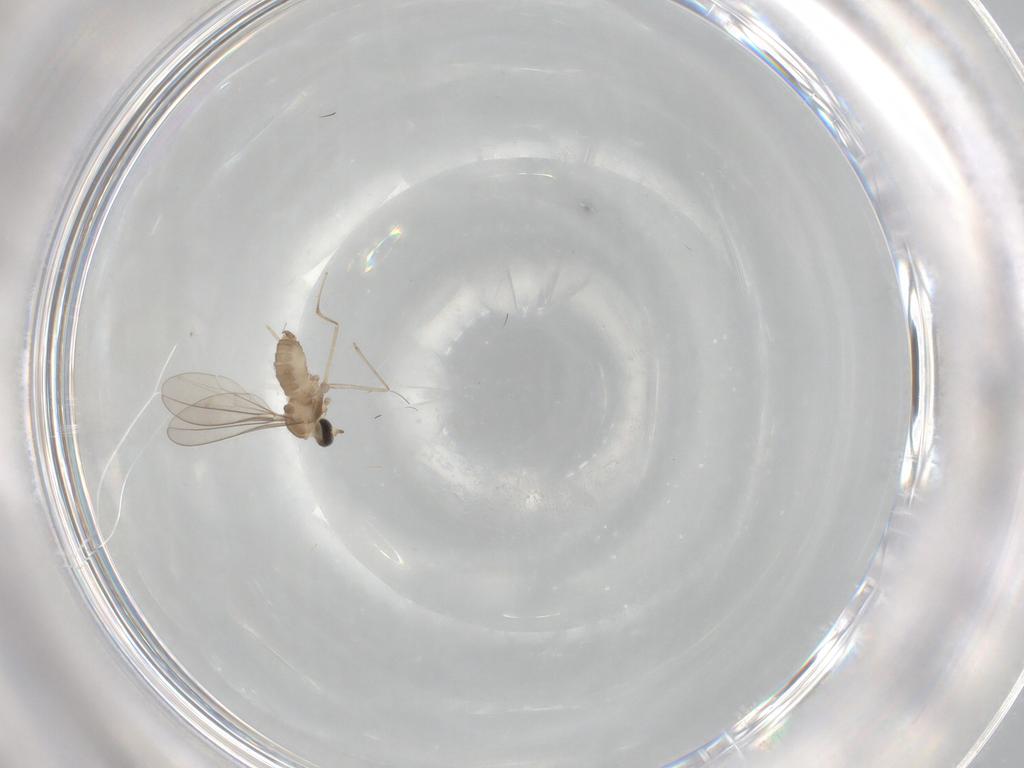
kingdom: Animalia
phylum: Arthropoda
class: Insecta
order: Diptera
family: Cecidomyiidae
